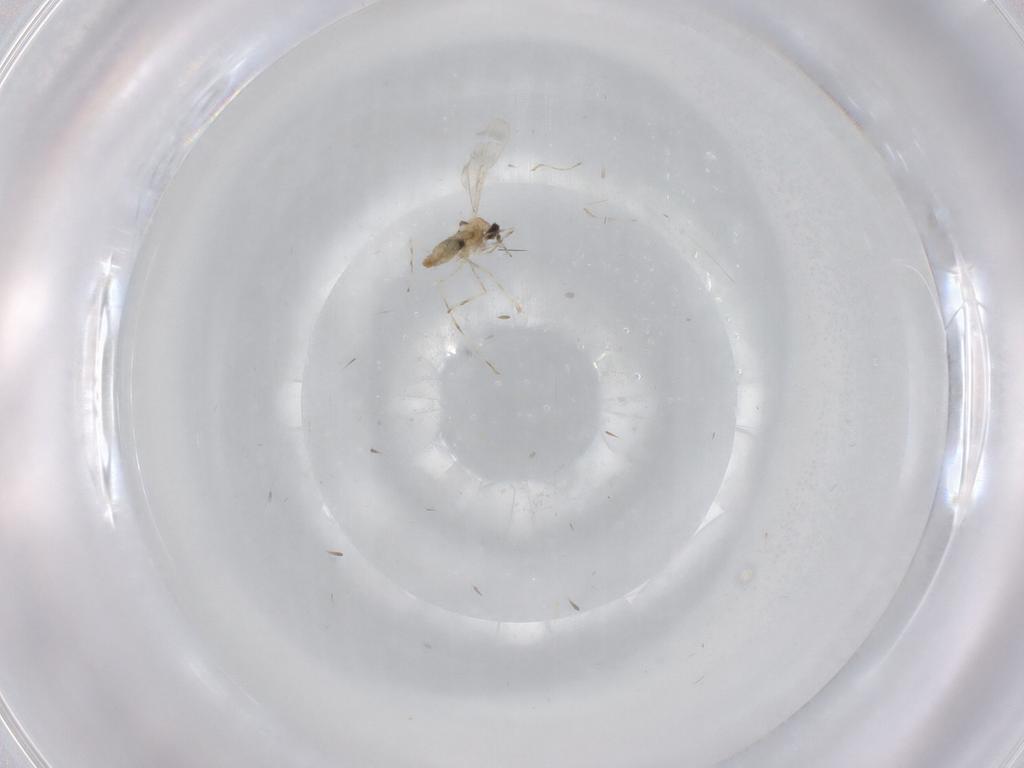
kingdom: Animalia
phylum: Arthropoda
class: Insecta
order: Diptera
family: Cecidomyiidae
